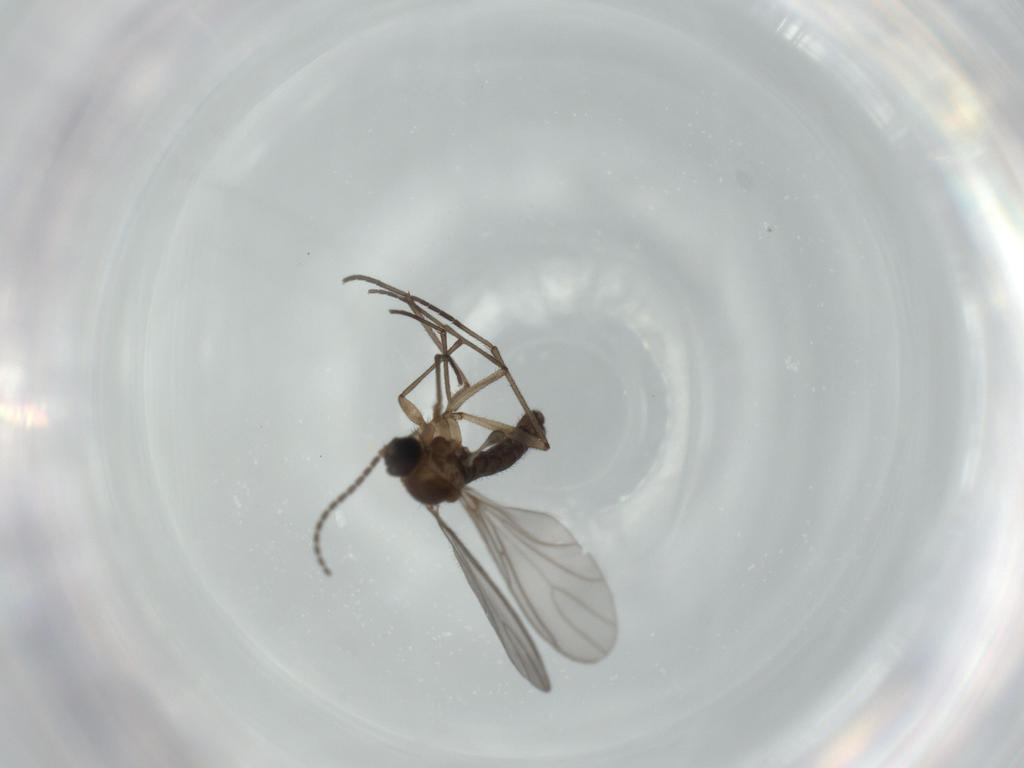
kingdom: Animalia
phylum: Arthropoda
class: Insecta
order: Diptera
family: Sciaridae
